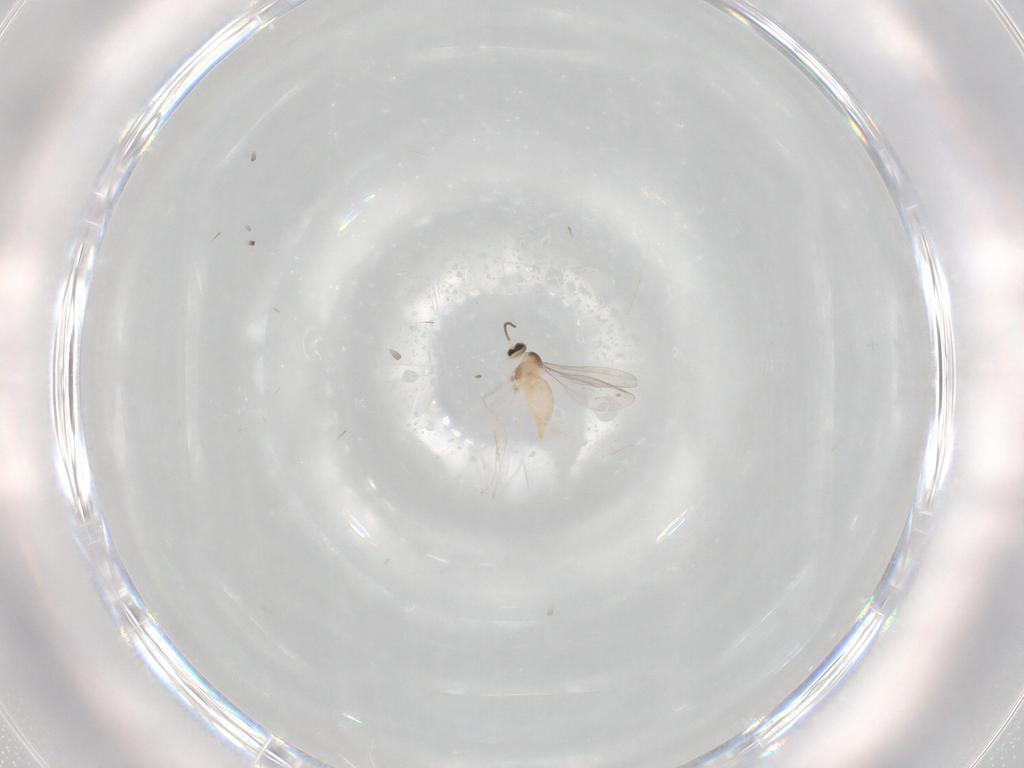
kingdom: Animalia
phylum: Arthropoda
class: Insecta
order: Diptera
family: Cecidomyiidae
